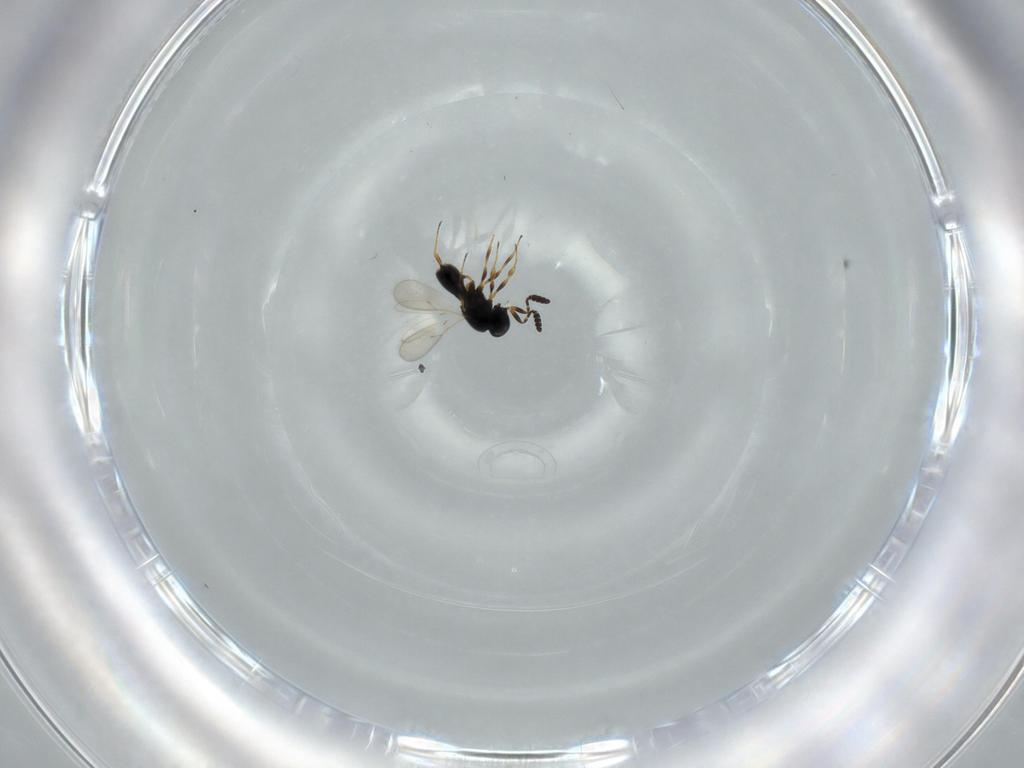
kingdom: Animalia
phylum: Arthropoda
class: Insecta
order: Hymenoptera
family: Scelionidae
